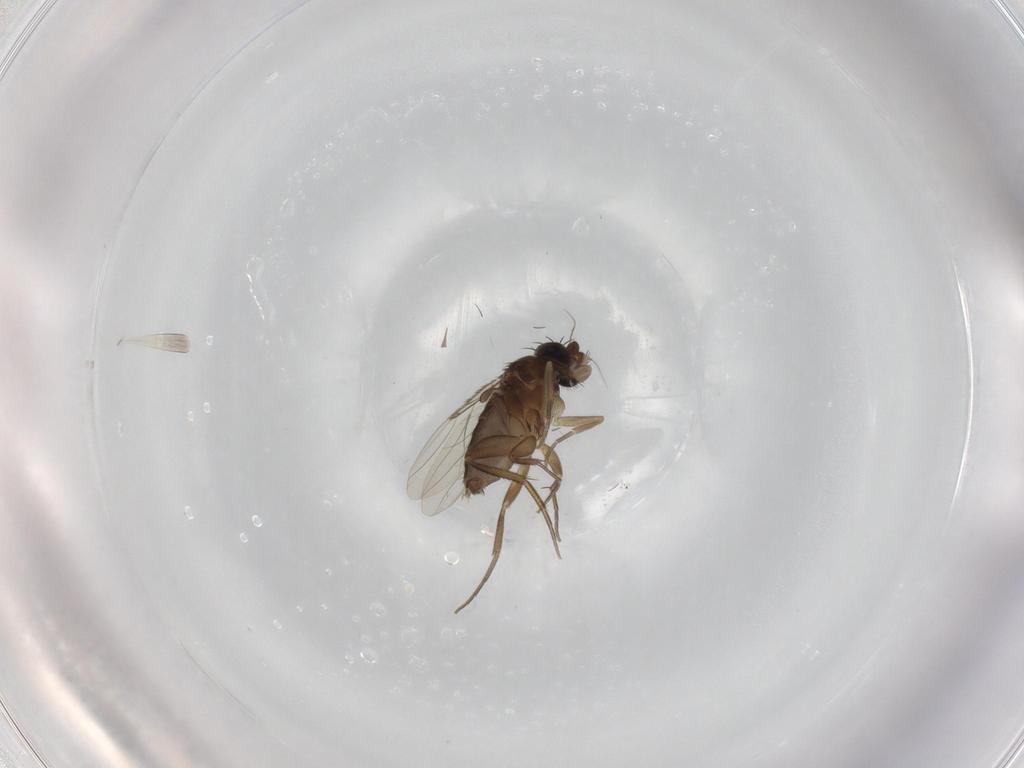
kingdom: Animalia
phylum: Arthropoda
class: Insecta
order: Diptera
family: Phoridae
